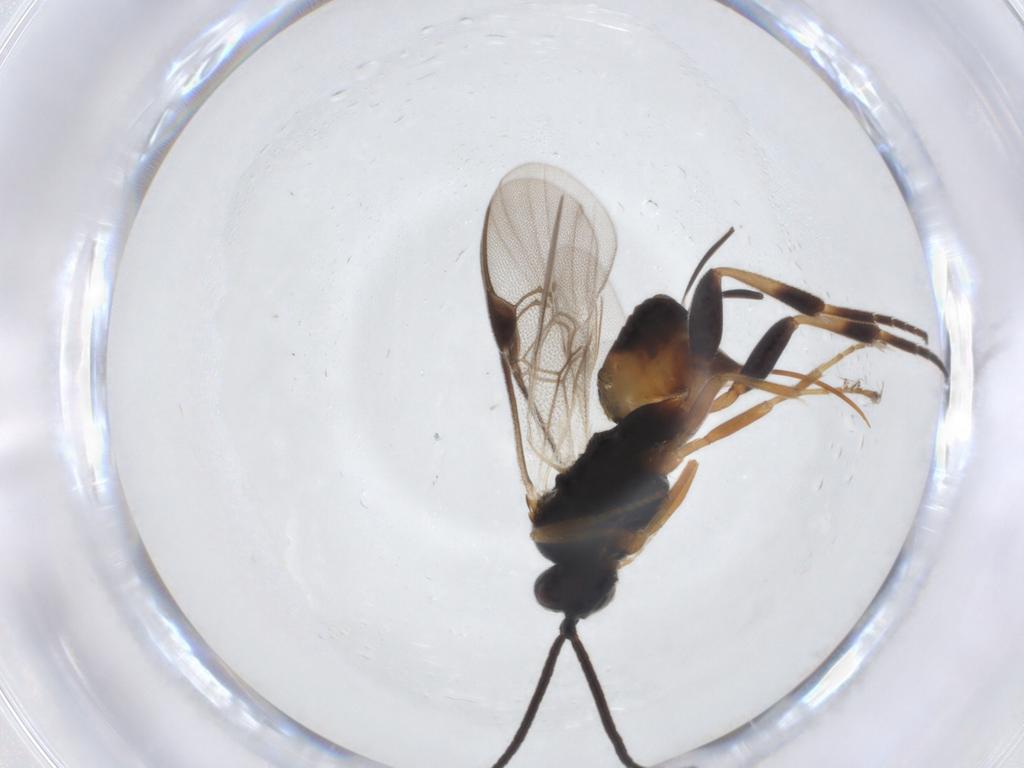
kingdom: Animalia
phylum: Arthropoda
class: Insecta
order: Hymenoptera
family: Braconidae
